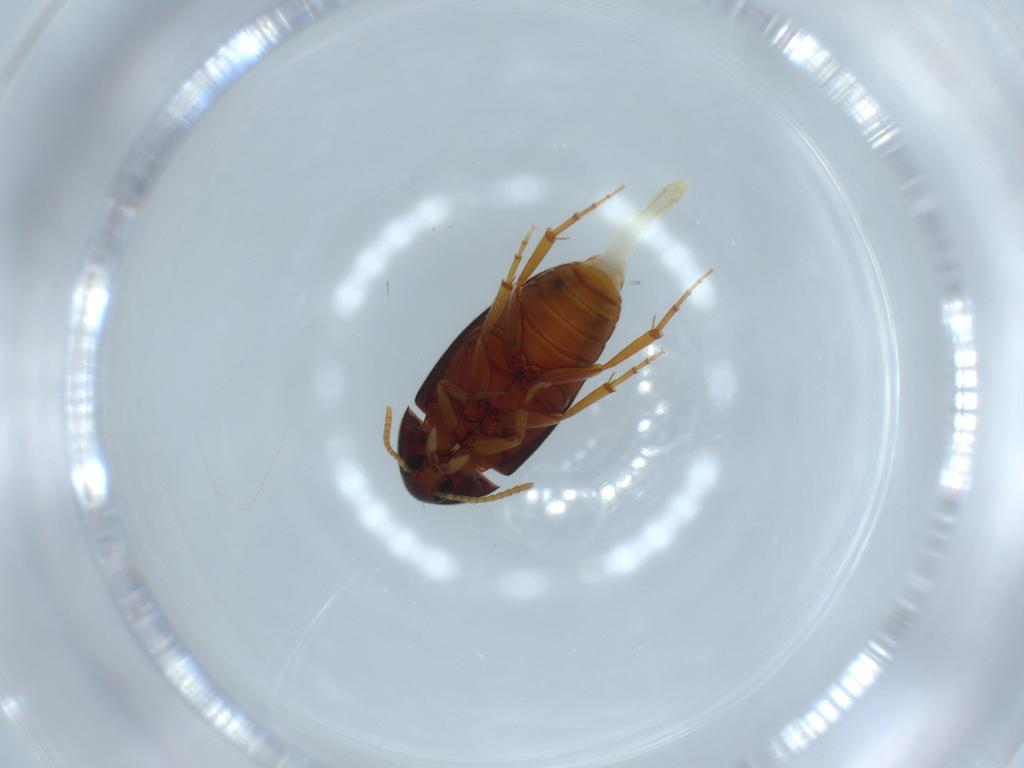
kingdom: Animalia
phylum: Arthropoda
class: Insecta
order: Coleoptera
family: Scraptiidae
